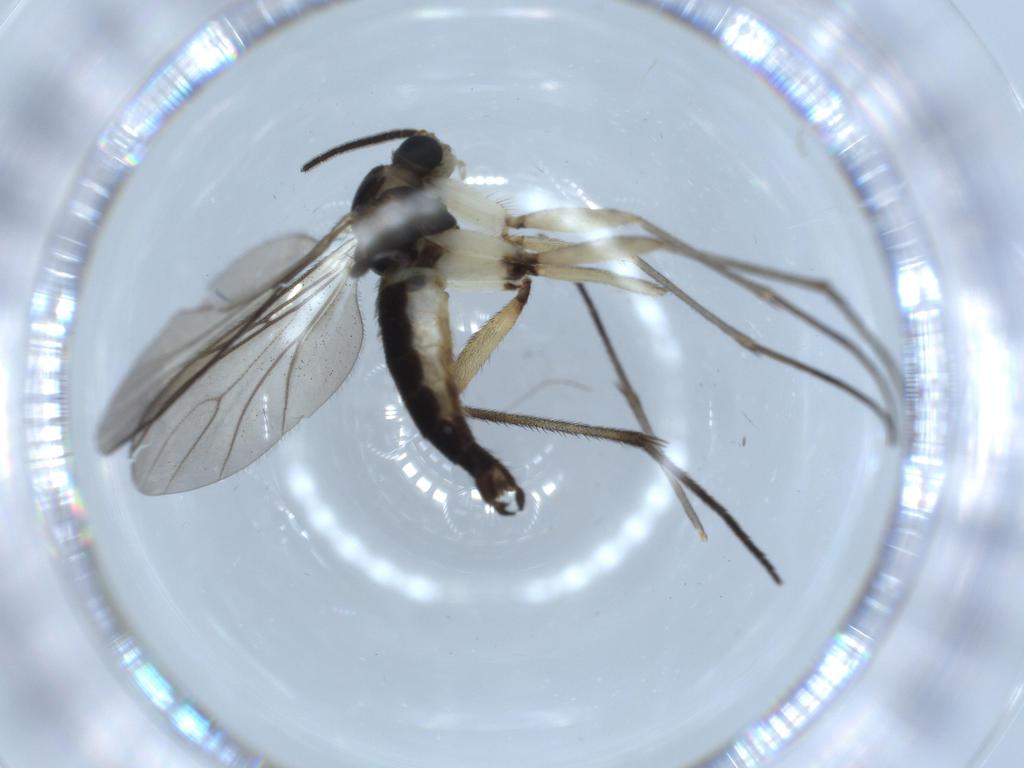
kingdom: Animalia
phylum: Arthropoda
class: Insecta
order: Diptera
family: Sciaridae
